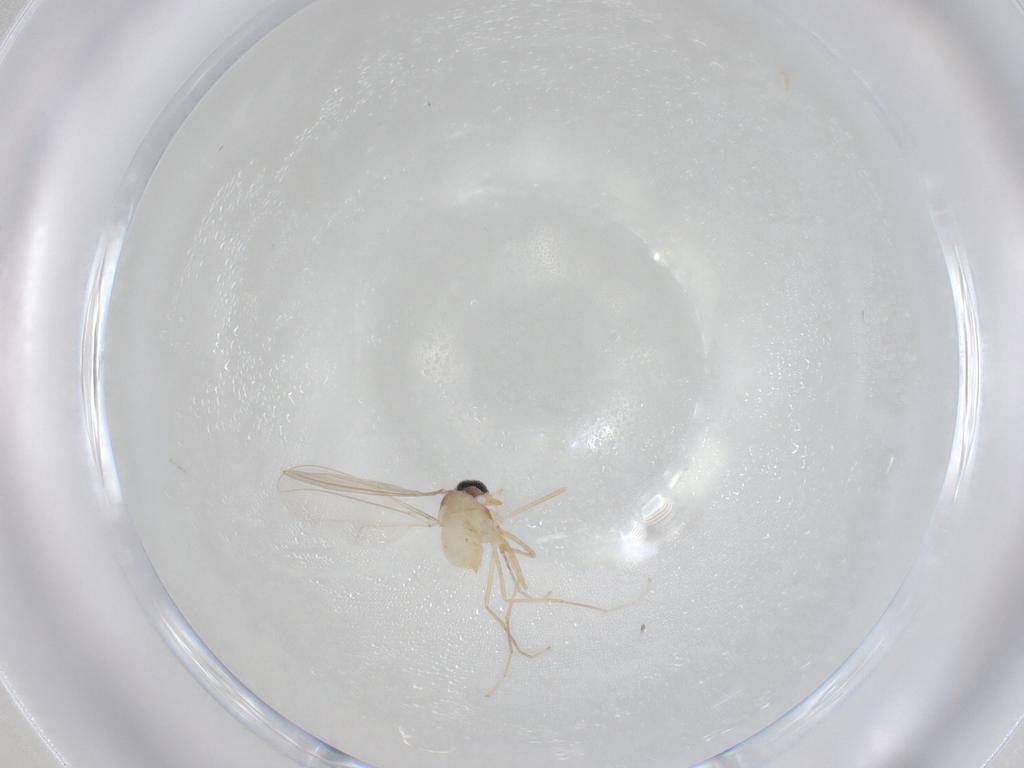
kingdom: Animalia
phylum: Arthropoda
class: Insecta
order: Diptera
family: Cecidomyiidae
